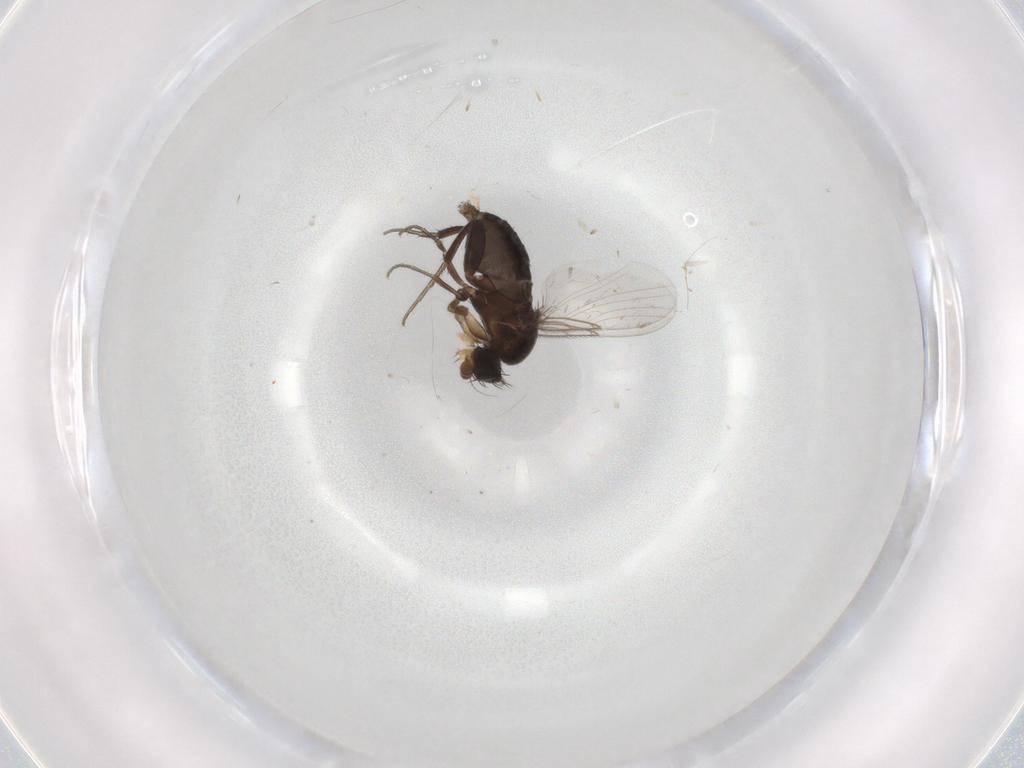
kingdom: Animalia
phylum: Arthropoda
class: Insecta
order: Diptera
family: Phoridae
